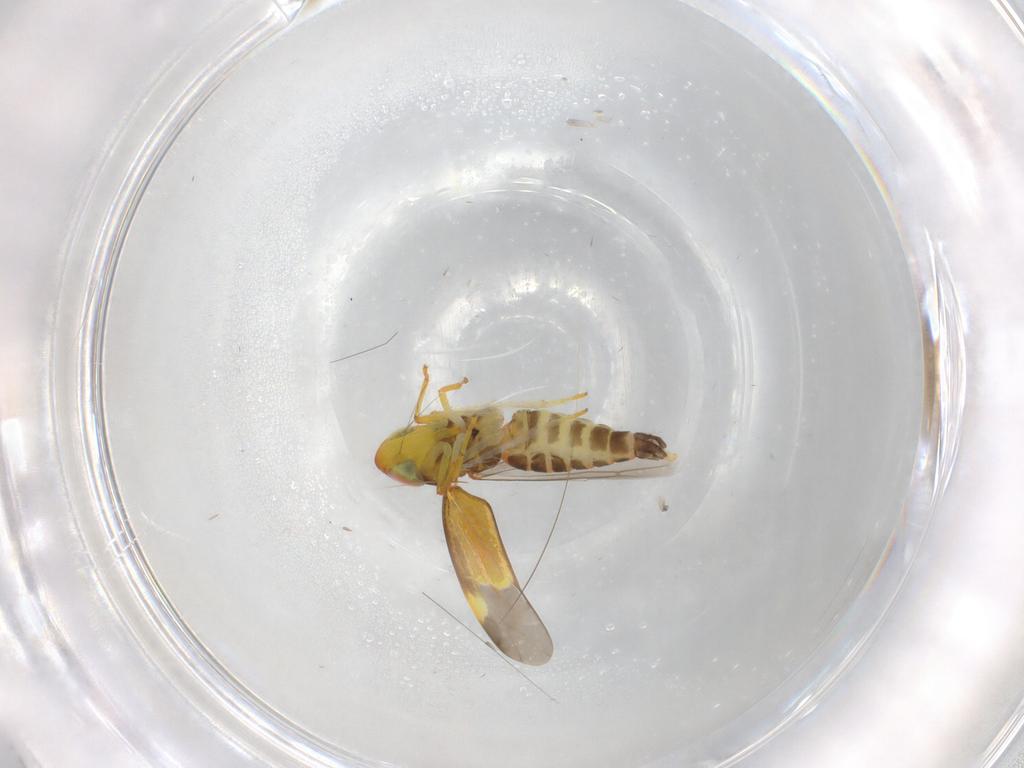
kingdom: Animalia
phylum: Arthropoda
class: Insecta
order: Hemiptera
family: Cicadellidae
